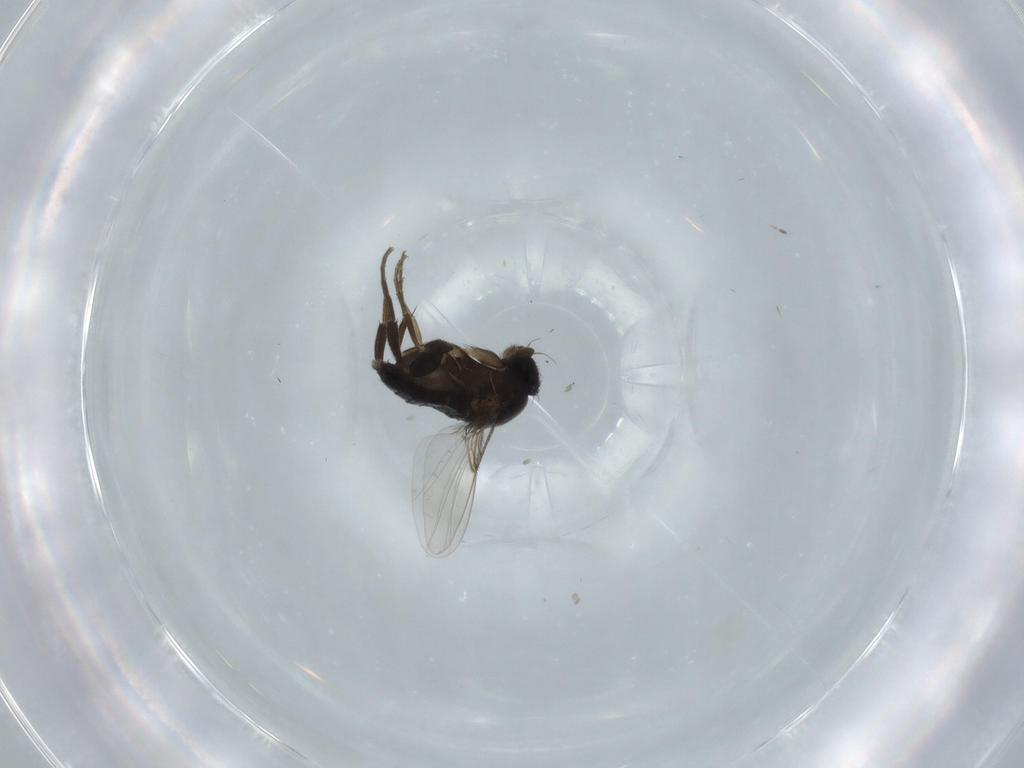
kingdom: Animalia
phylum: Arthropoda
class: Insecta
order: Diptera
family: Phoridae
